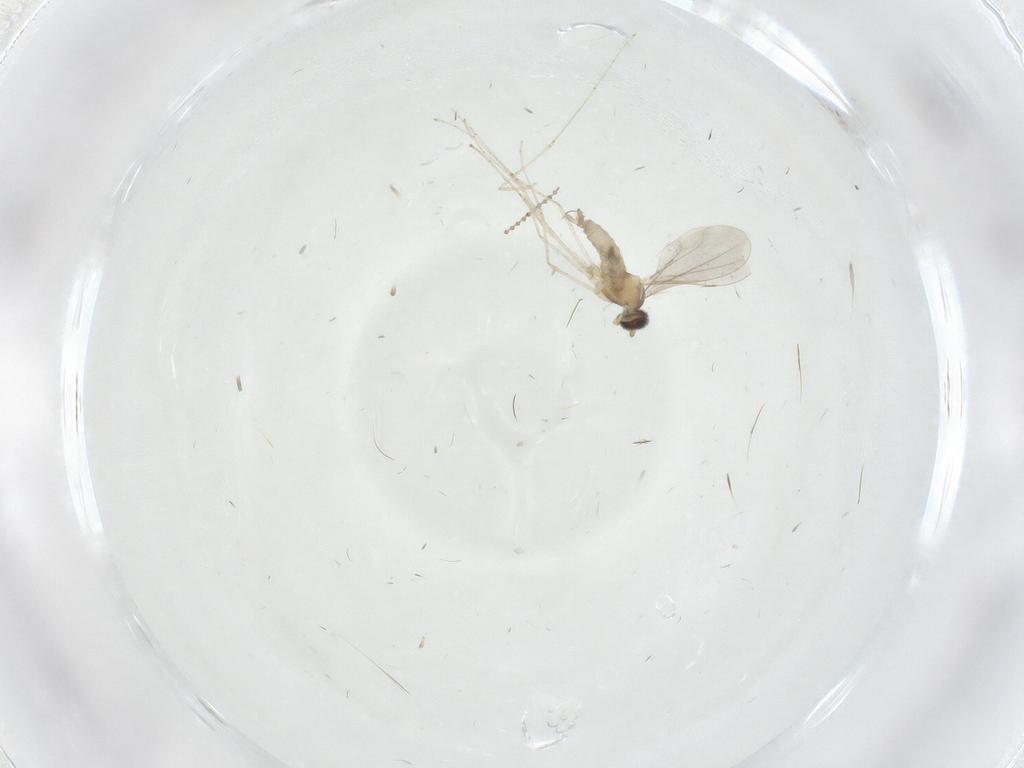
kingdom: Animalia
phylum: Arthropoda
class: Insecta
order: Diptera
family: Cecidomyiidae
